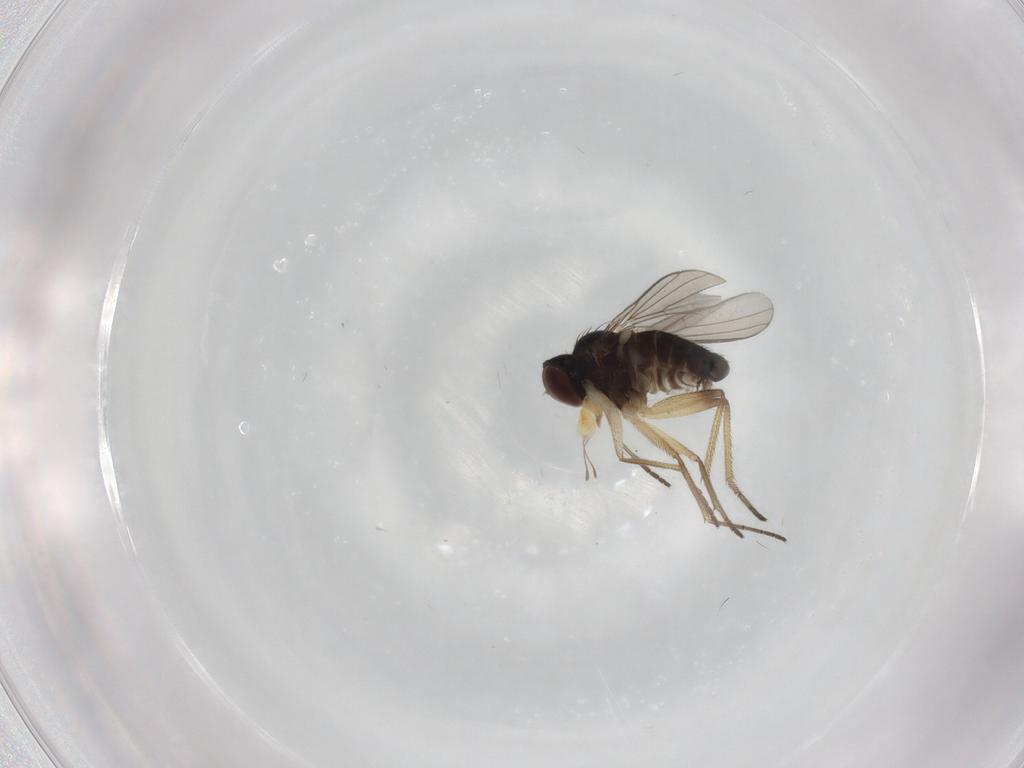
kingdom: Animalia
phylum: Arthropoda
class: Insecta
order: Diptera
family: Dolichopodidae
